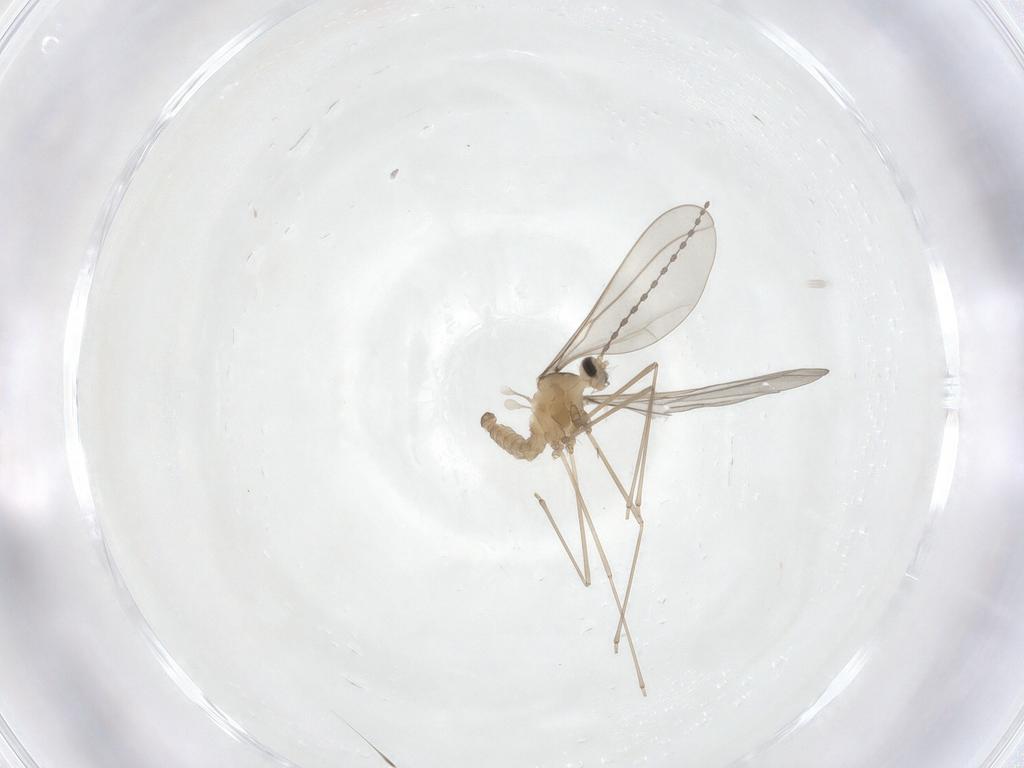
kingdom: Animalia
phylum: Arthropoda
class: Insecta
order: Diptera
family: Cecidomyiidae
